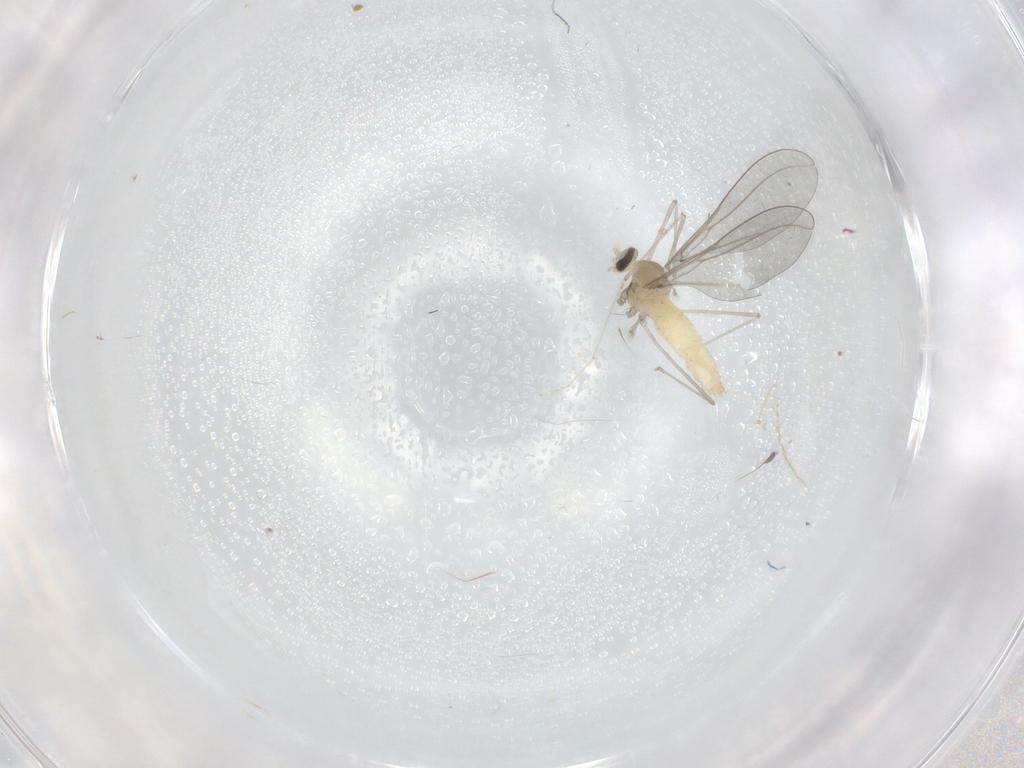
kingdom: Animalia
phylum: Arthropoda
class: Insecta
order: Diptera
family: Cecidomyiidae
